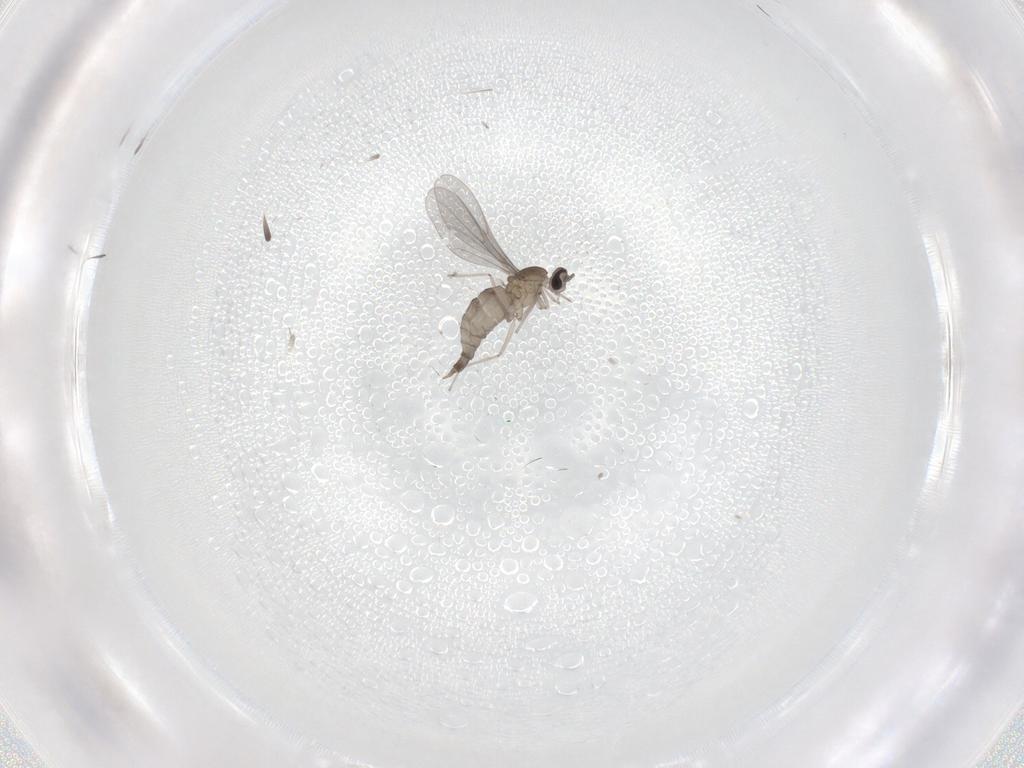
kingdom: Animalia
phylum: Arthropoda
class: Insecta
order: Diptera
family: Cecidomyiidae
